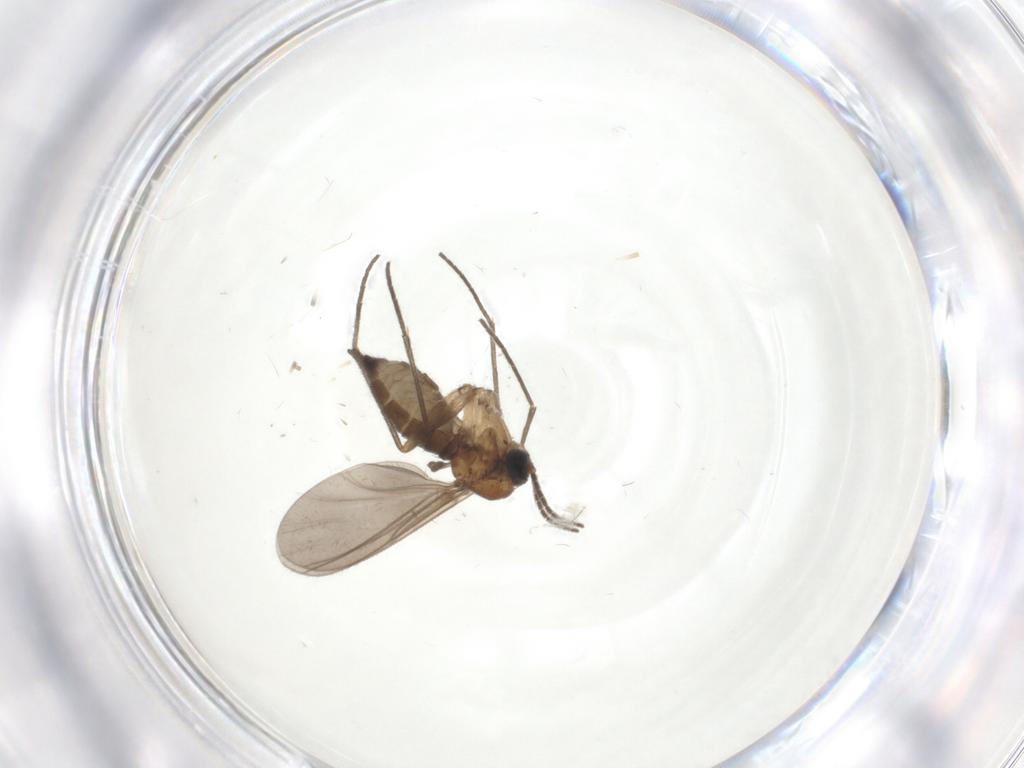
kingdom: Animalia
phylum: Arthropoda
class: Insecta
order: Diptera
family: Sciaridae
